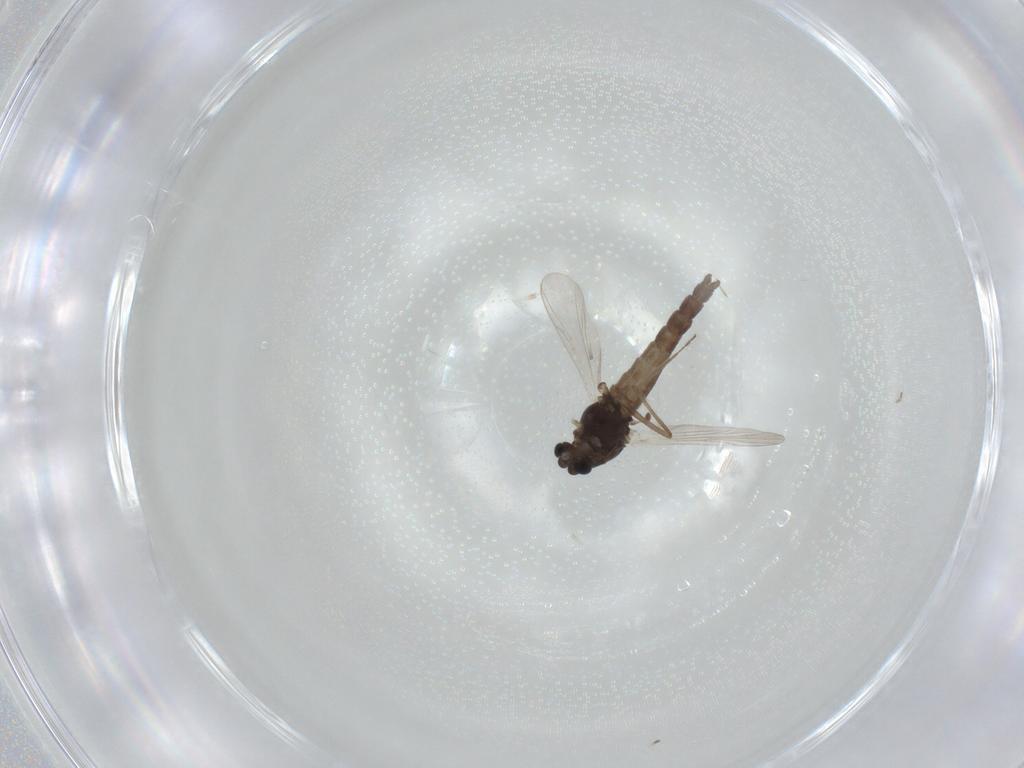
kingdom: Animalia
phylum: Arthropoda
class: Insecta
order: Diptera
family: Chironomidae
